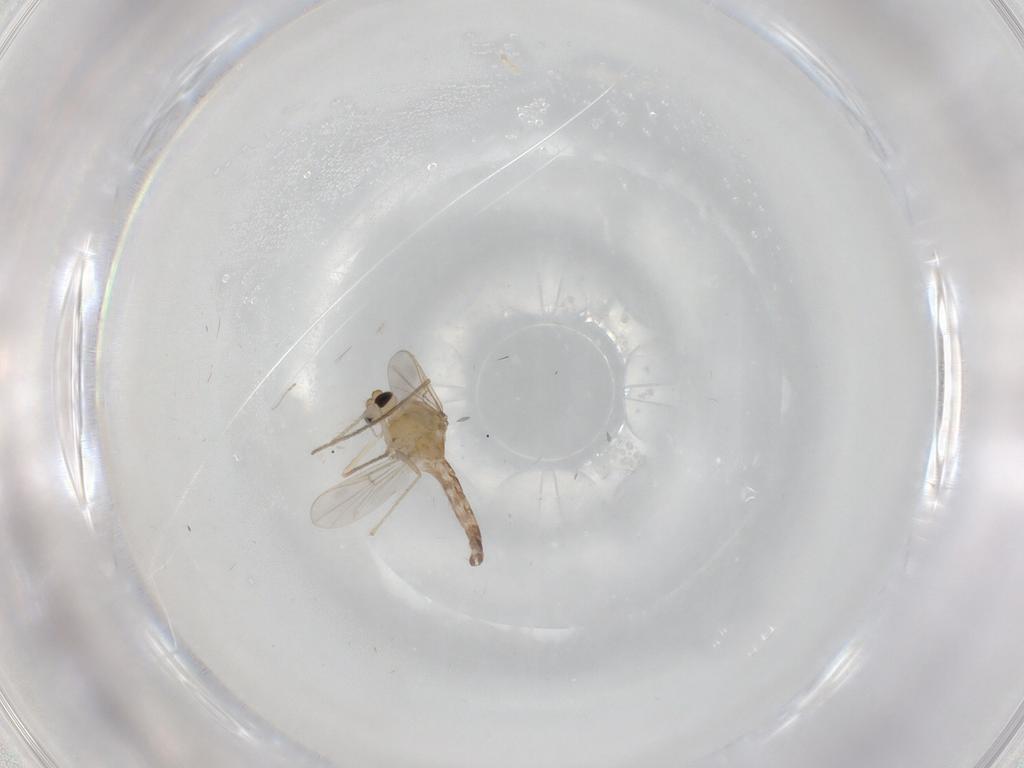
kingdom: Animalia
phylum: Arthropoda
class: Insecta
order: Diptera
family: Chironomidae
